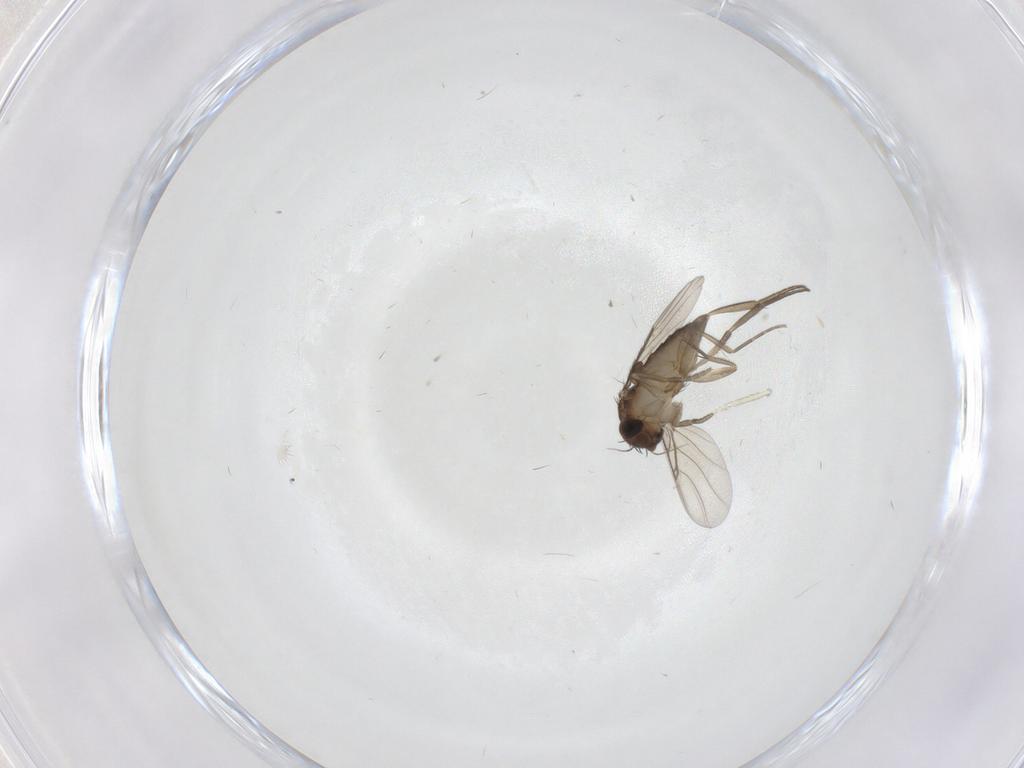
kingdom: Animalia
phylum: Arthropoda
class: Insecta
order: Diptera
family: Phoridae
